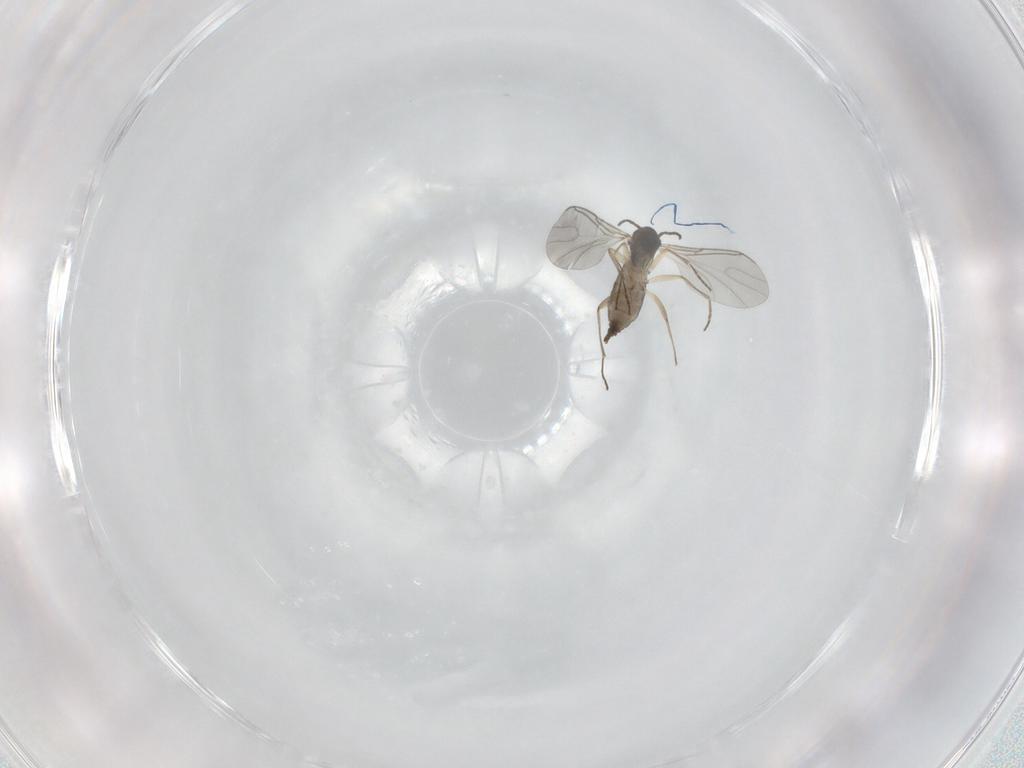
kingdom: Animalia
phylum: Arthropoda
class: Insecta
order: Diptera
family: Sciaridae
